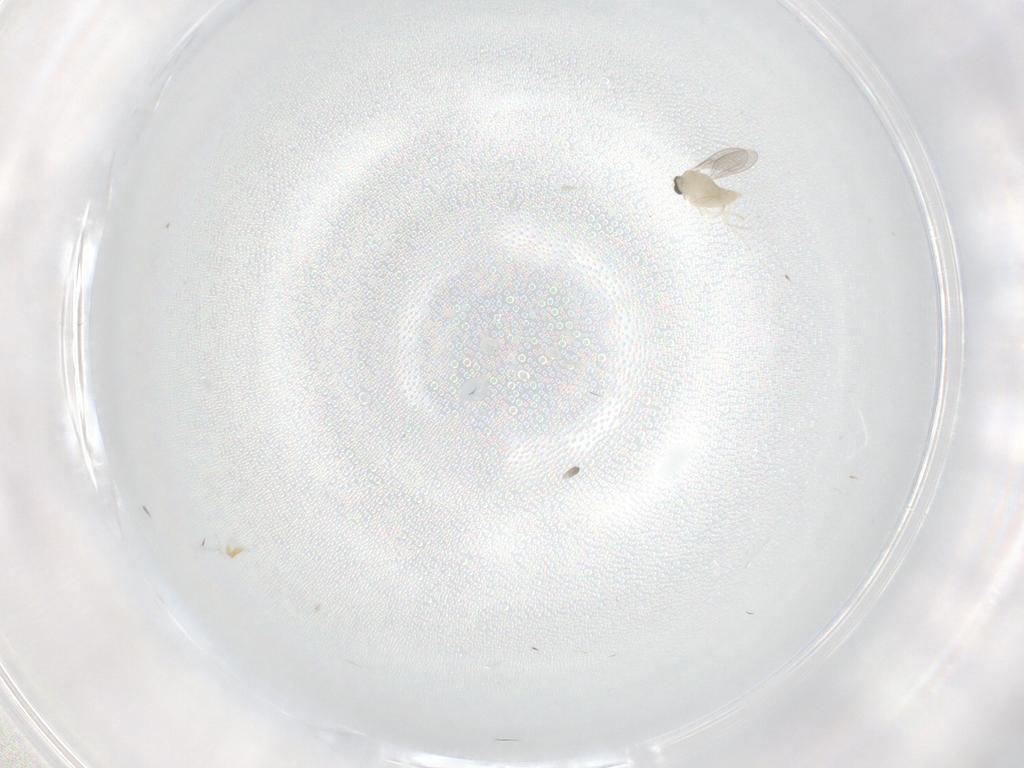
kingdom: Animalia
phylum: Arthropoda
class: Insecta
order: Diptera
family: Cecidomyiidae
